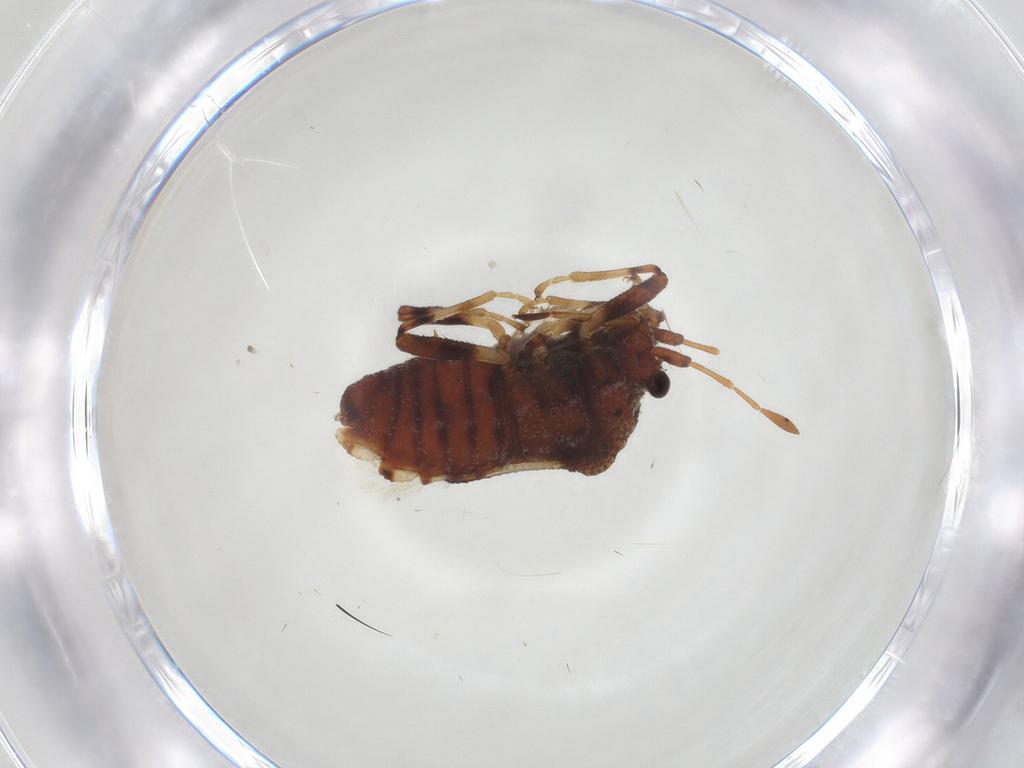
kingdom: Animalia
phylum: Arthropoda
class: Insecta
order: Hemiptera
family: Malcidae
